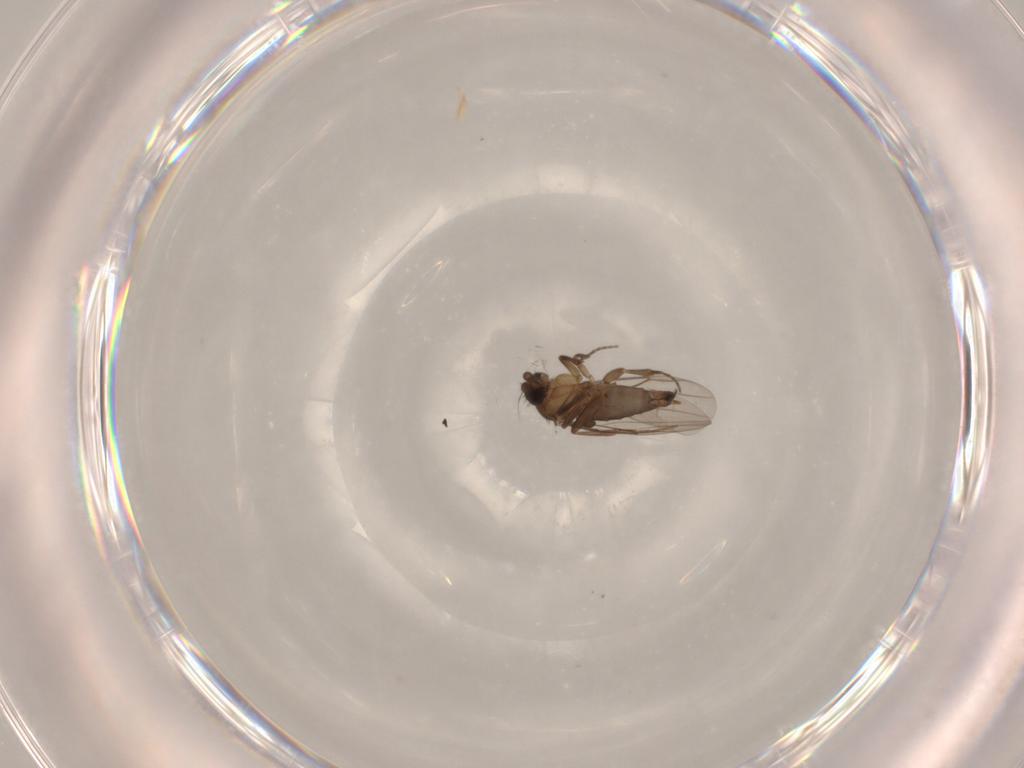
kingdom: Animalia
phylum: Arthropoda
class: Insecta
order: Diptera
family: Phoridae
